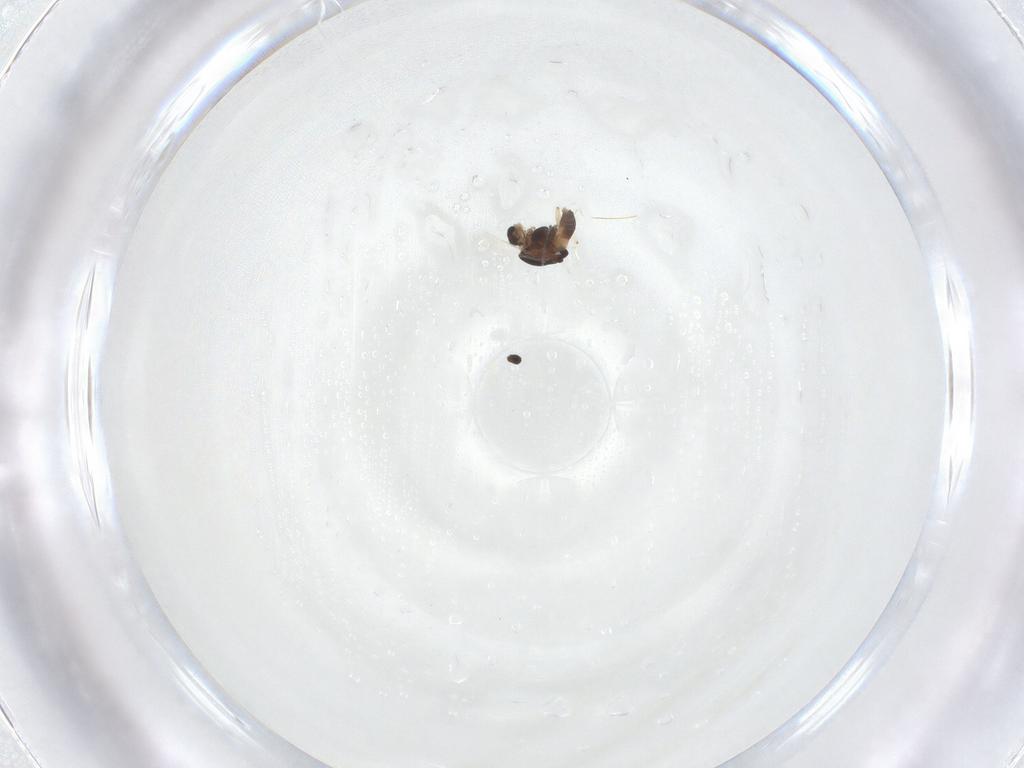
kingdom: Animalia
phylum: Arthropoda
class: Insecta
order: Diptera
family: Chironomidae
